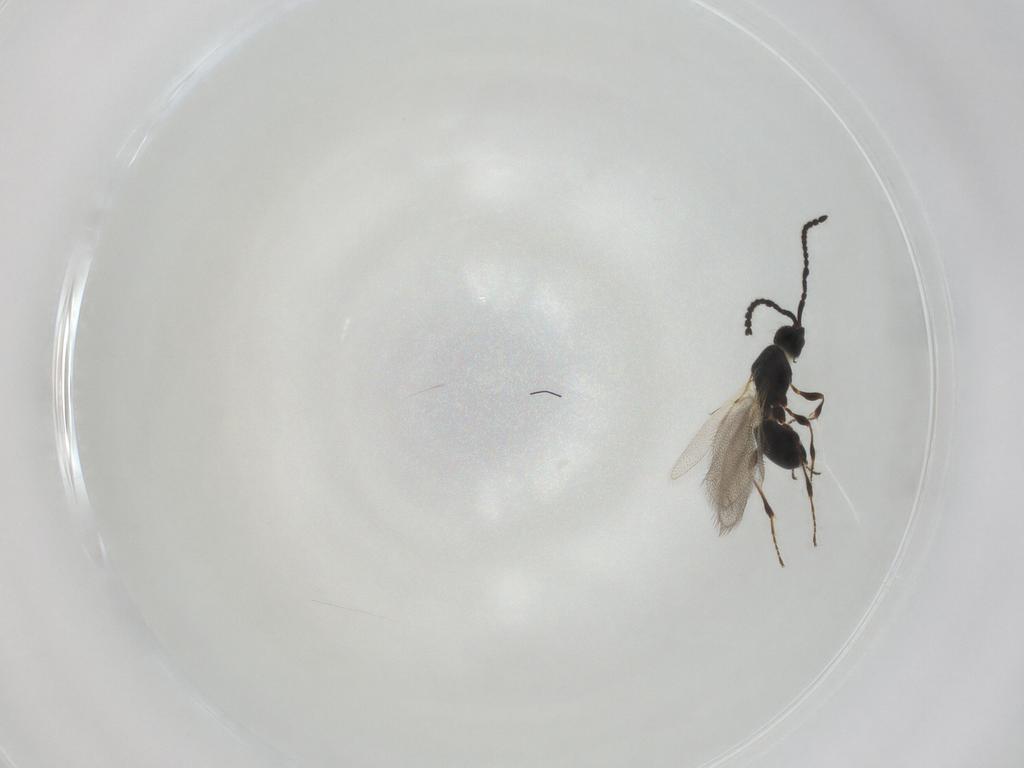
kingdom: Animalia
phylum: Arthropoda
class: Insecta
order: Hymenoptera
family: Diapriidae
